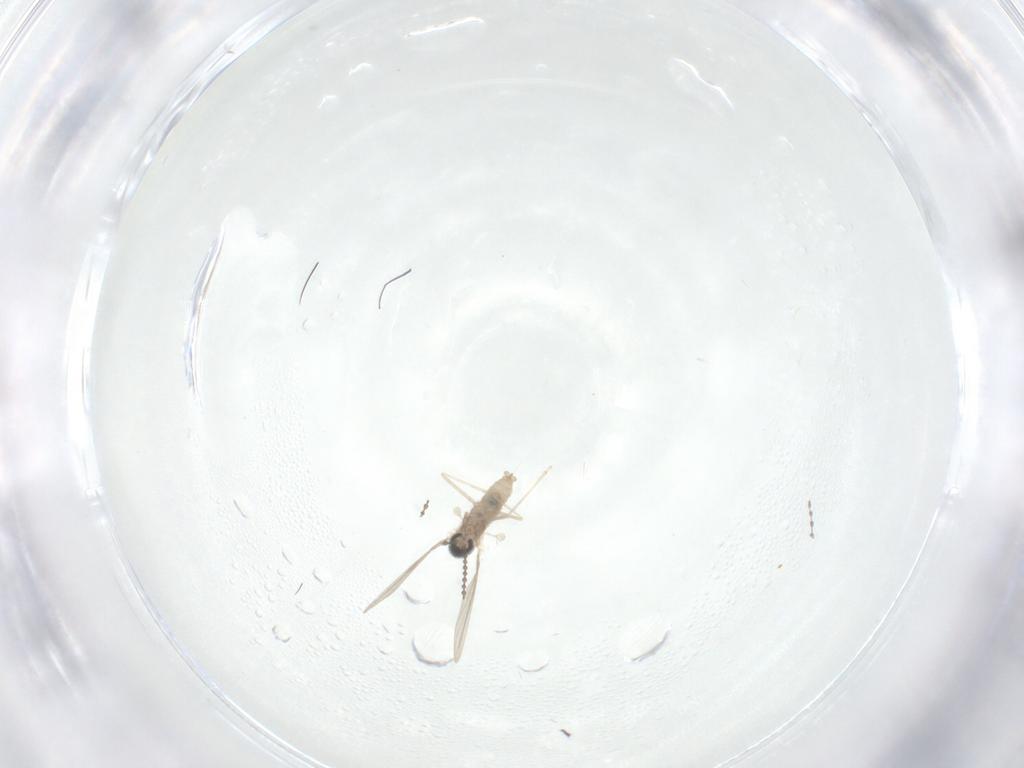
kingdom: Animalia
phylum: Arthropoda
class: Insecta
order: Diptera
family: Cecidomyiidae
